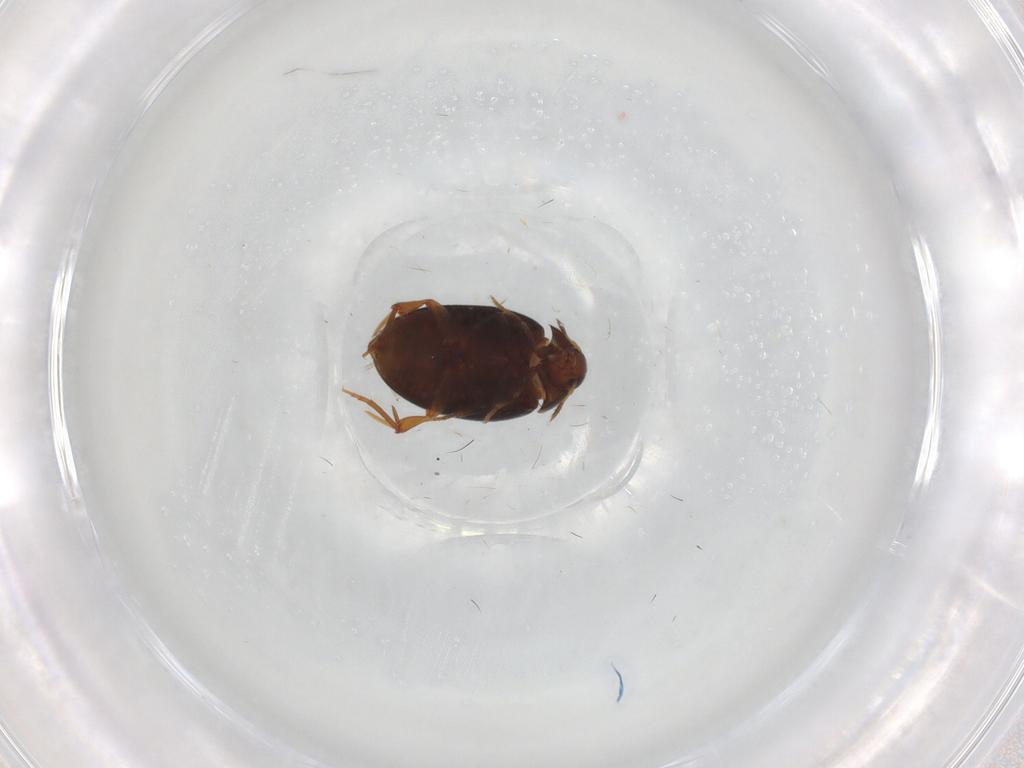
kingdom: Animalia
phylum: Arthropoda
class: Insecta
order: Coleoptera
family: Melandryidae
